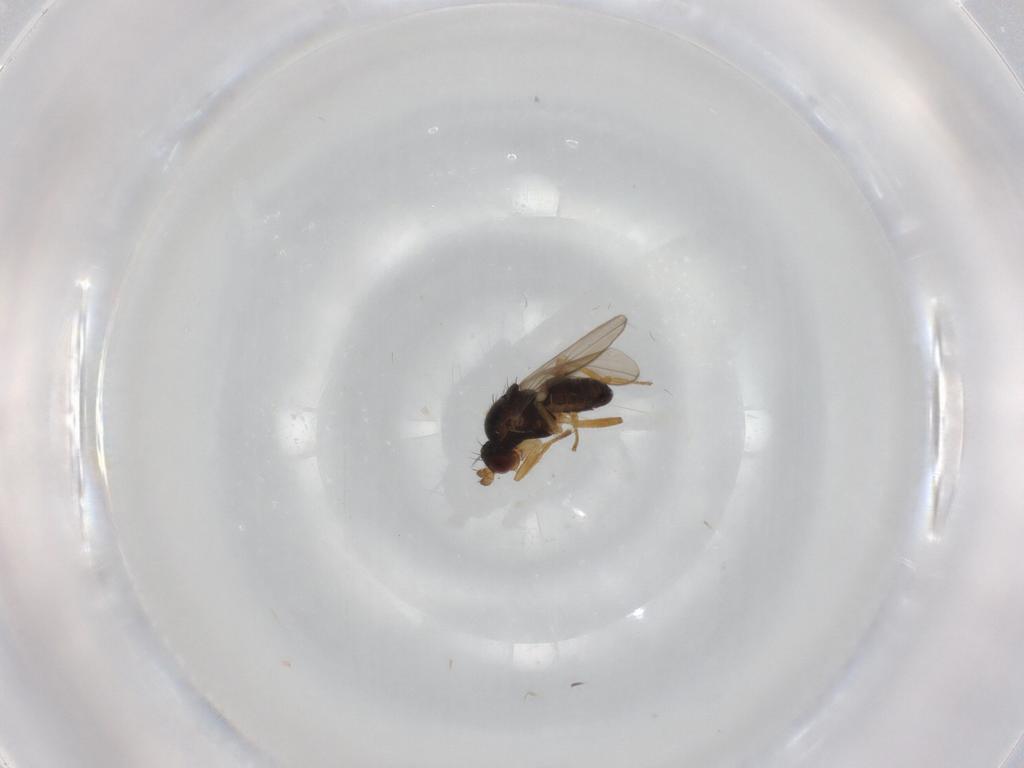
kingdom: Animalia
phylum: Arthropoda
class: Insecta
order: Diptera
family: Sphaeroceridae
